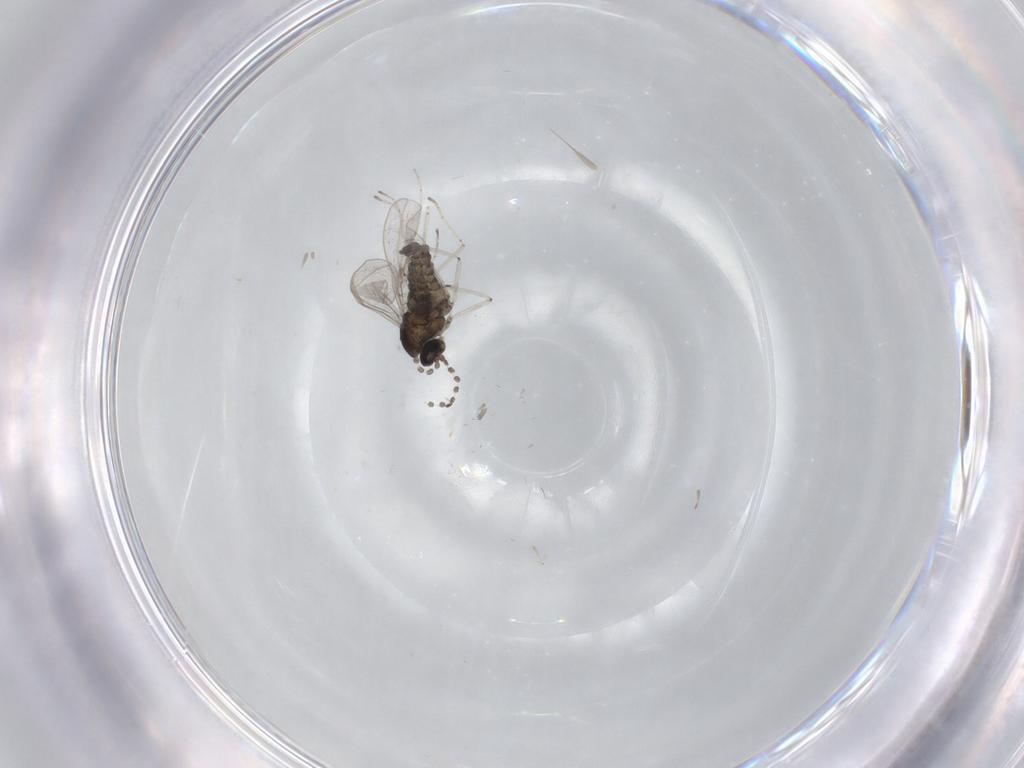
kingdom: Animalia
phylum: Arthropoda
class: Insecta
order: Diptera
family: Cecidomyiidae
